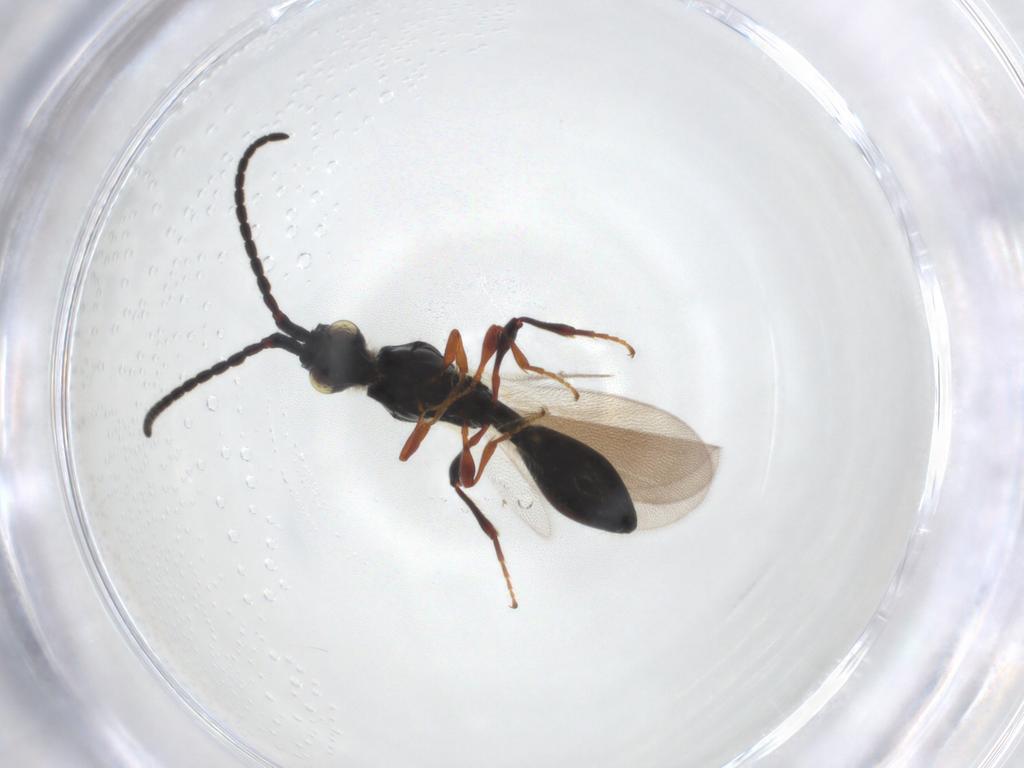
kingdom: Animalia
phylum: Arthropoda
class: Insecta
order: Hymenoptera
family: Diapriidae
